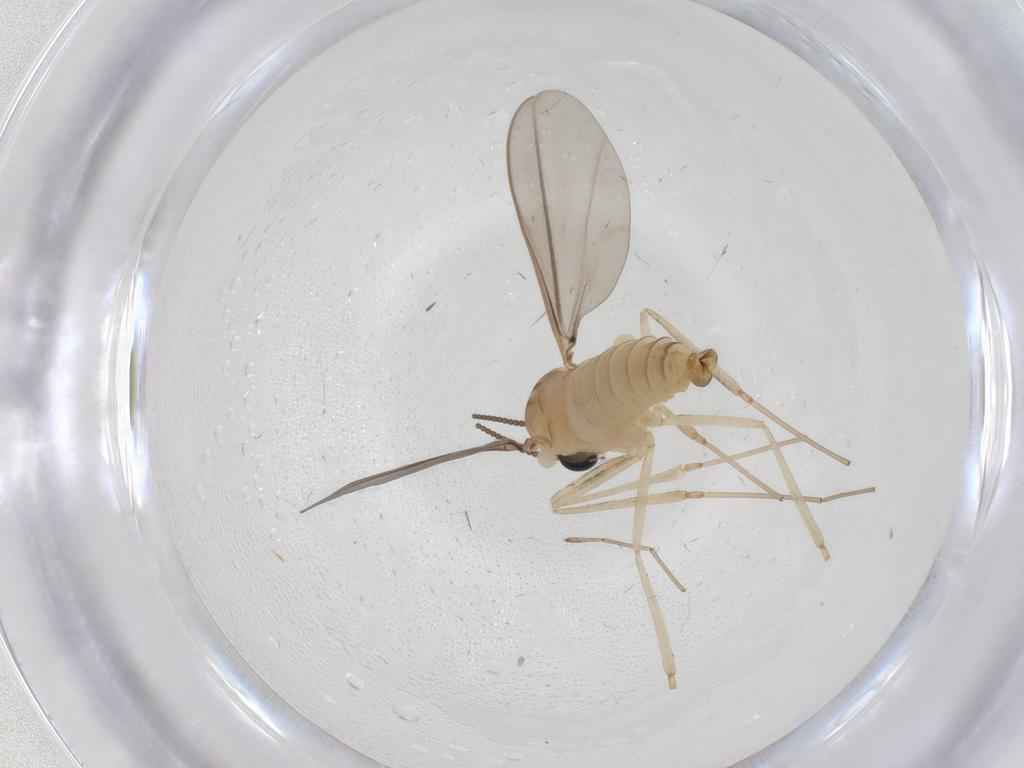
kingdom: Animalia
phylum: Arthropoda
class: Insecta
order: Diptera
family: Cecidomyiidae
